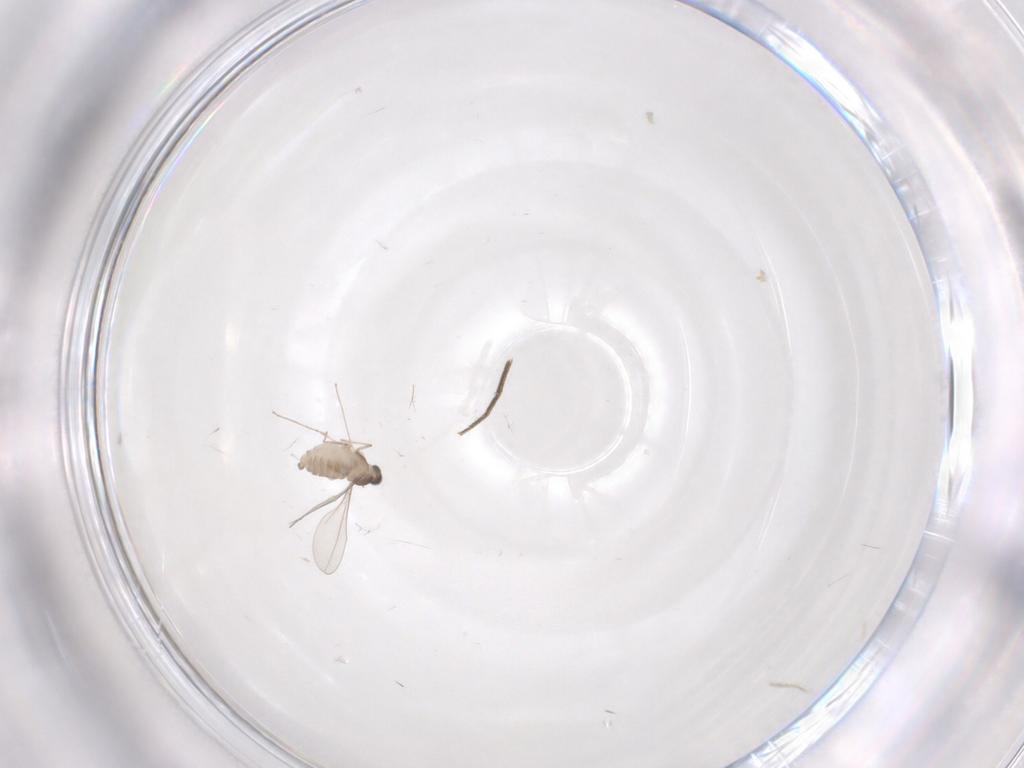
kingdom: Animalia
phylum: Arthropoda
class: Insecta
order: Diptera
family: Cecidomyiidae
